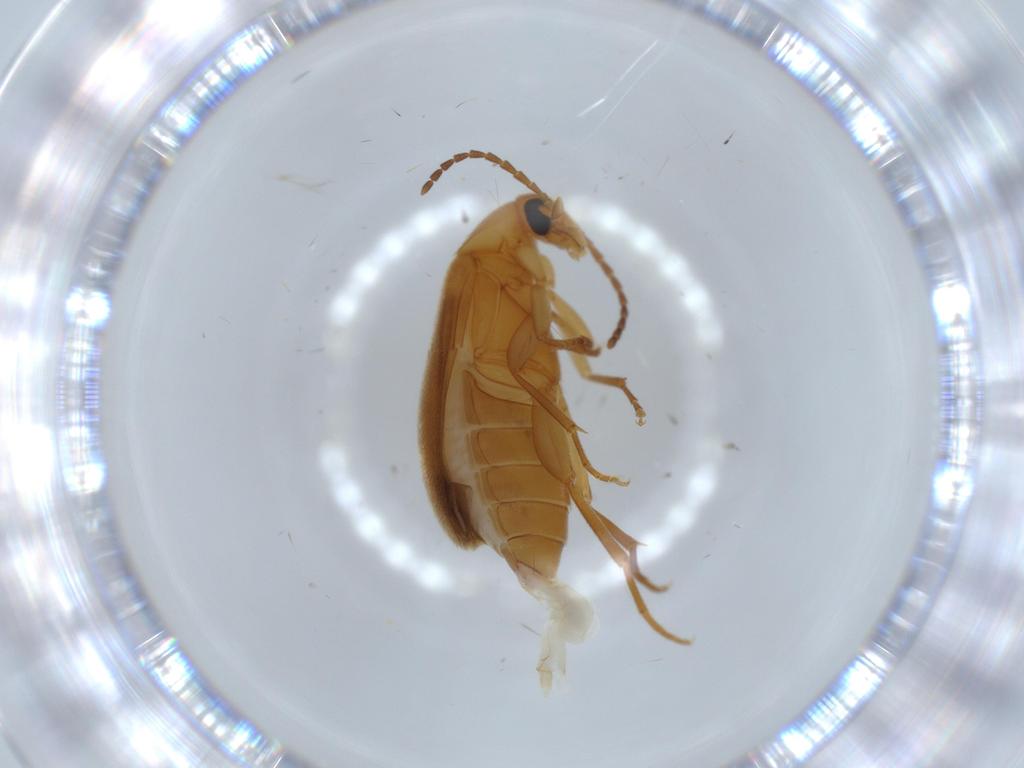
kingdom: Animalia
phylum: Arthropoda
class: Insecta
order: Coleoptera
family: Scraptiidae
